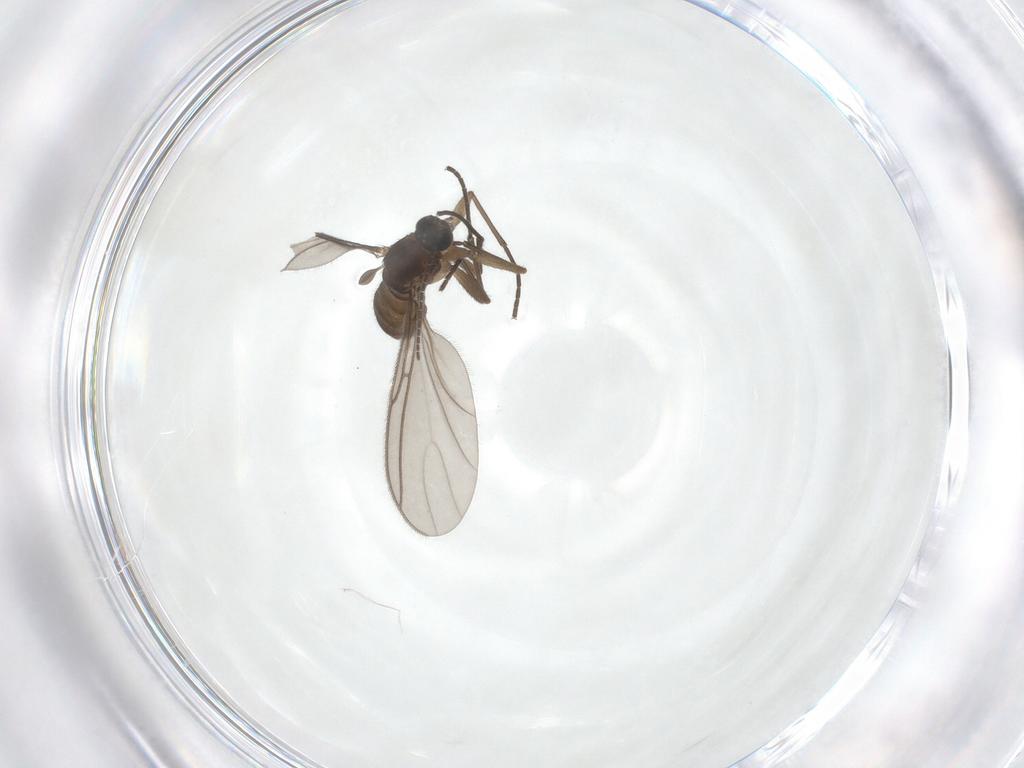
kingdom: Animalia
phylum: Arthropoda
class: Insecta
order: Diptera
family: Sciaridae
